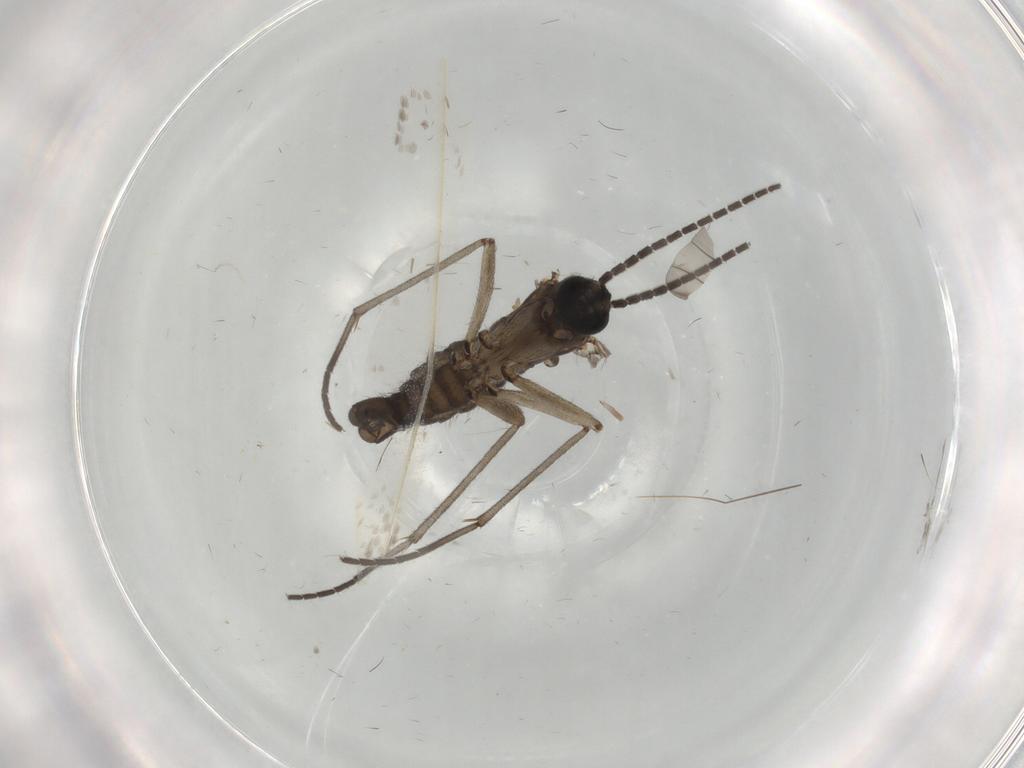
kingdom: Animalia
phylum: Arthropoda
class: Insecta
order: Diptera
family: Sciaridae
